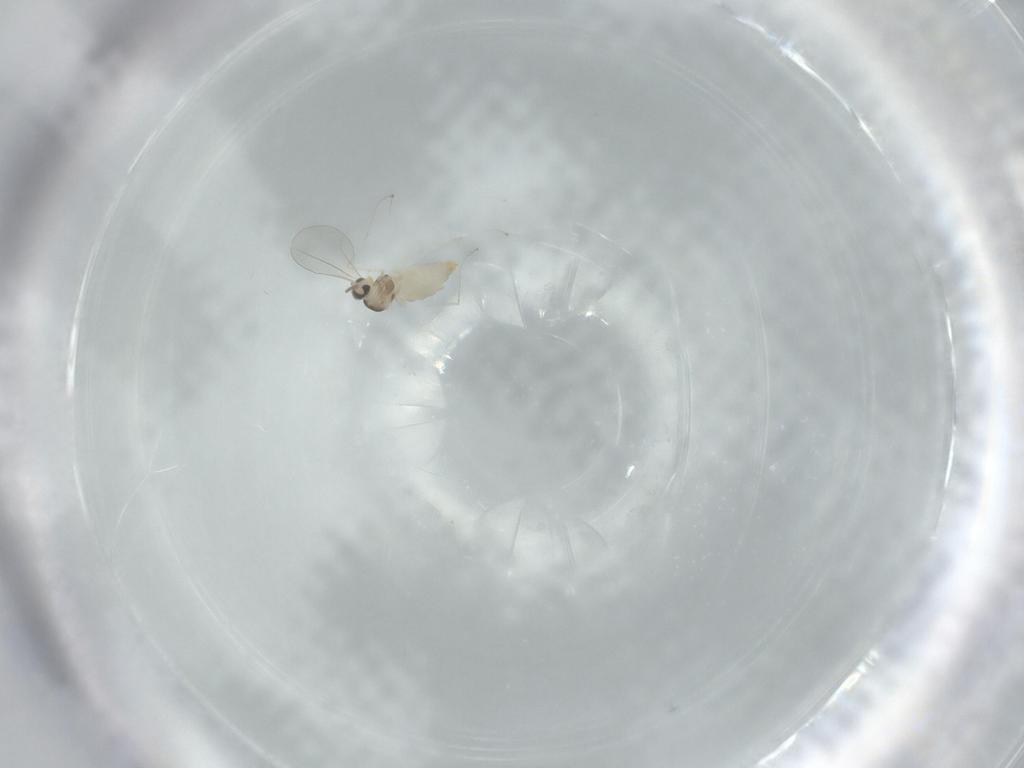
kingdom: Animalia
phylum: Arthropoda
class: Insecta
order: Diptera
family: Cecidomyiidae
